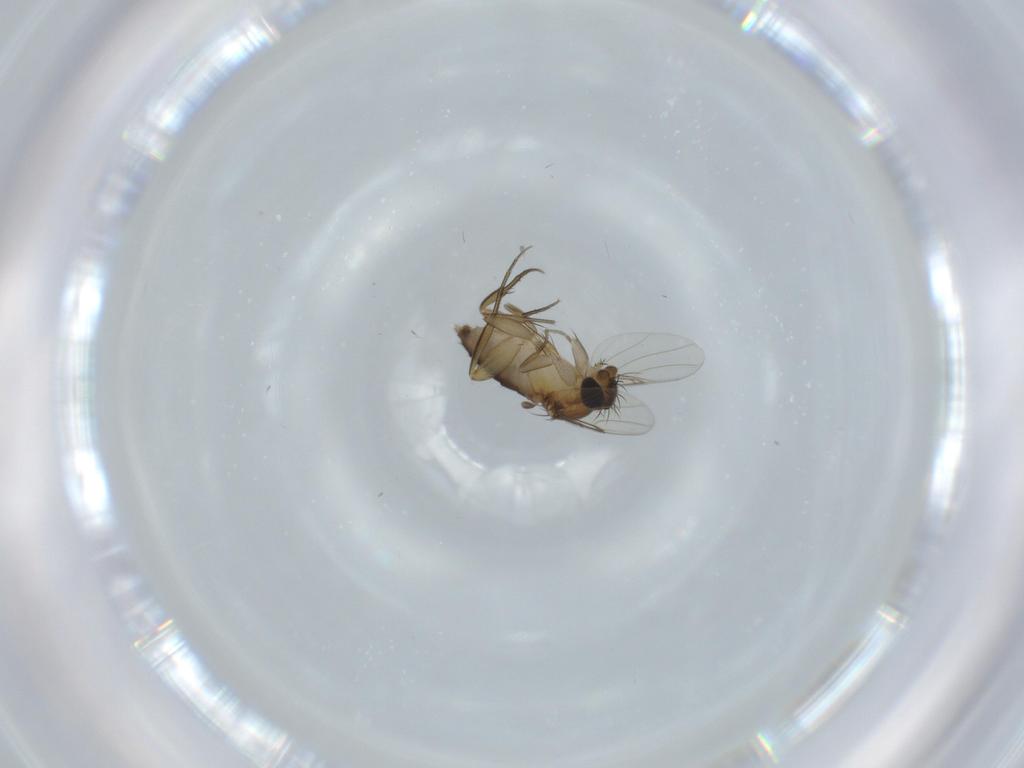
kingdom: Animalia
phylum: Arthropoda
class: Insecta
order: Diptera
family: Phoridae
